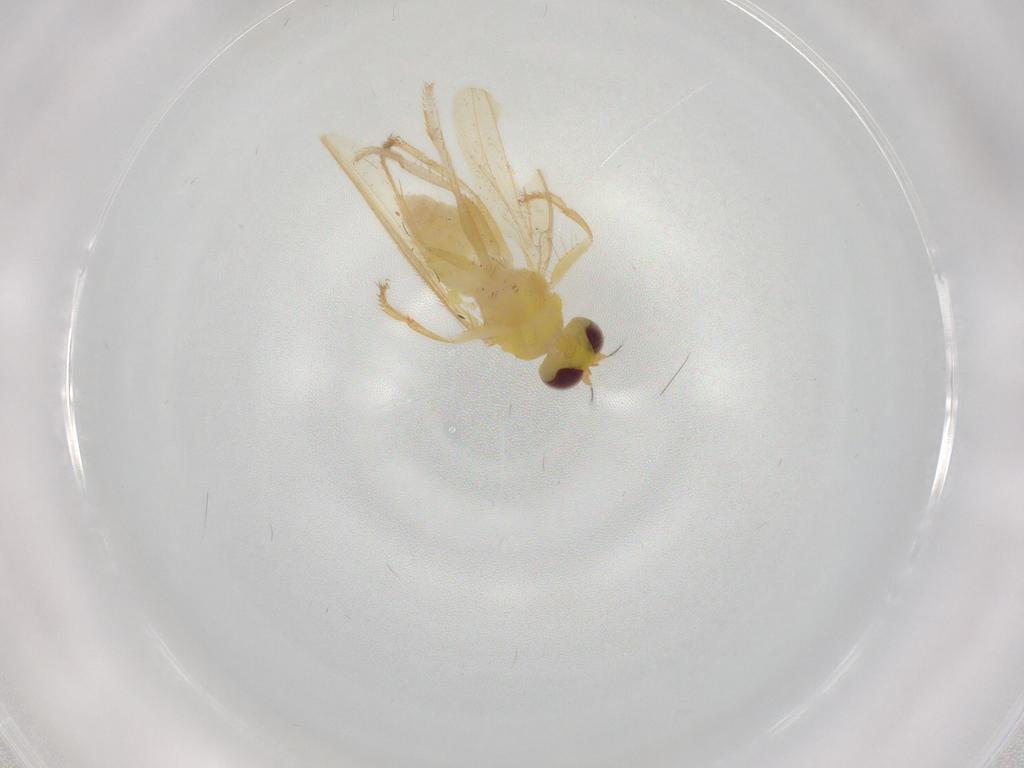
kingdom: Animalia
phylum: Arthropoda
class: Insecta
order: Diptera
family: Periscelididae
